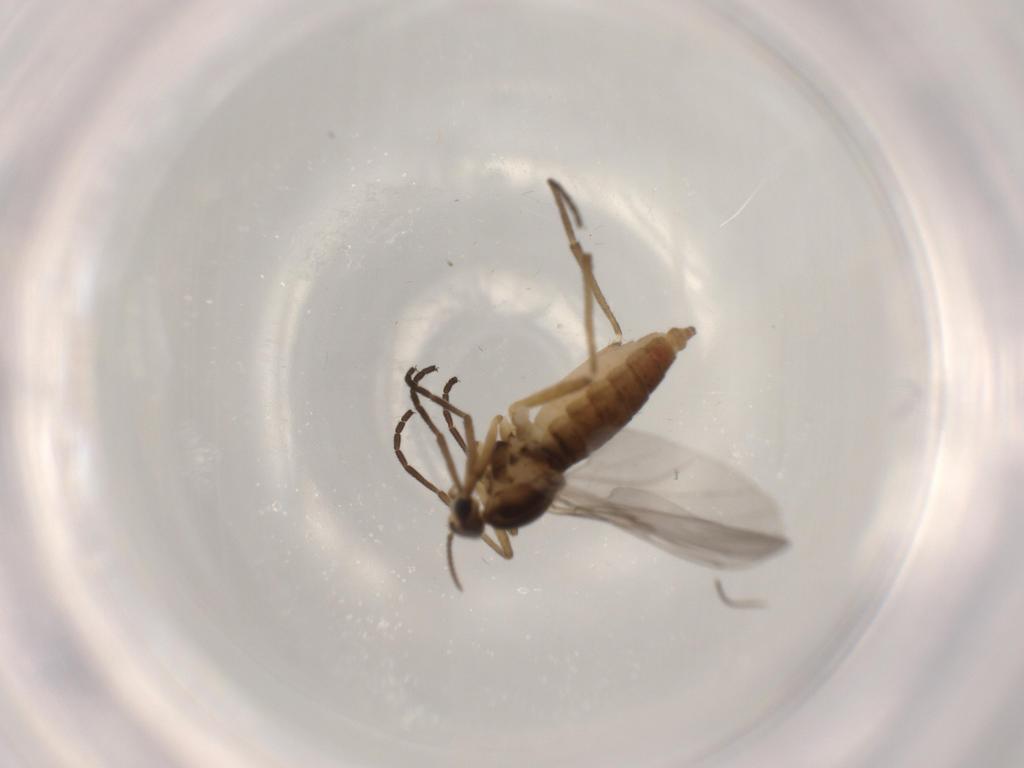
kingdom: Animalia
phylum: Arthropoda
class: Insecta
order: Diptera
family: Cecidomyiidae
